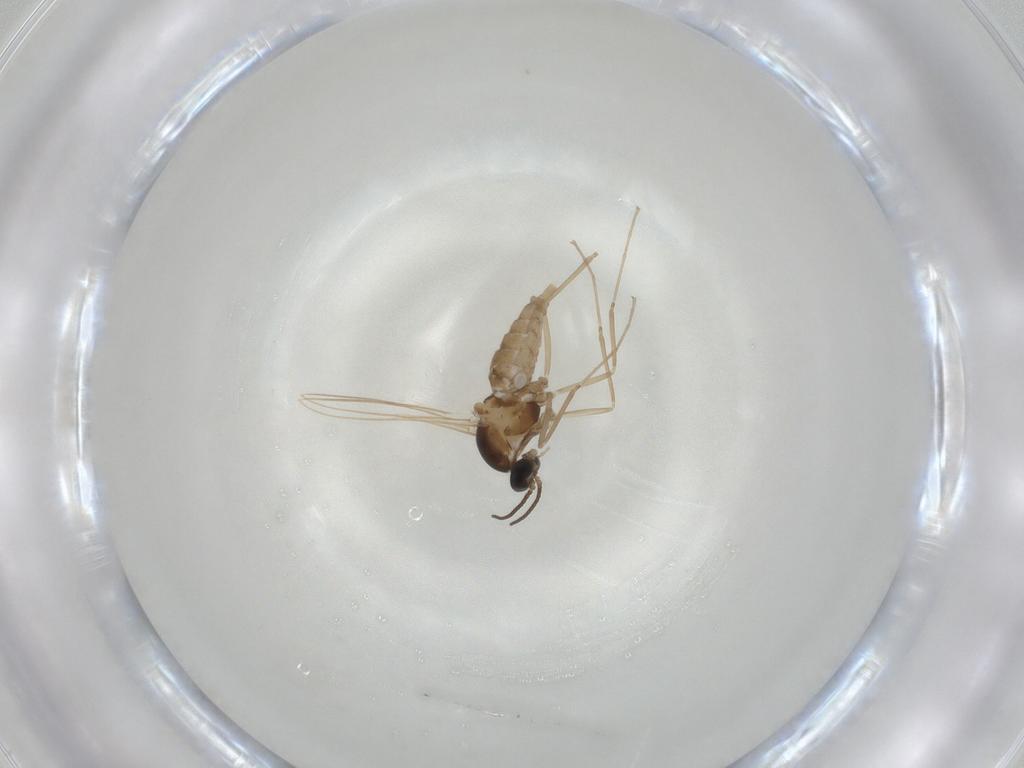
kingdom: Animalia
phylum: Arthropoda
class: Insecta
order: Diptera
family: Cecidomyiidae
